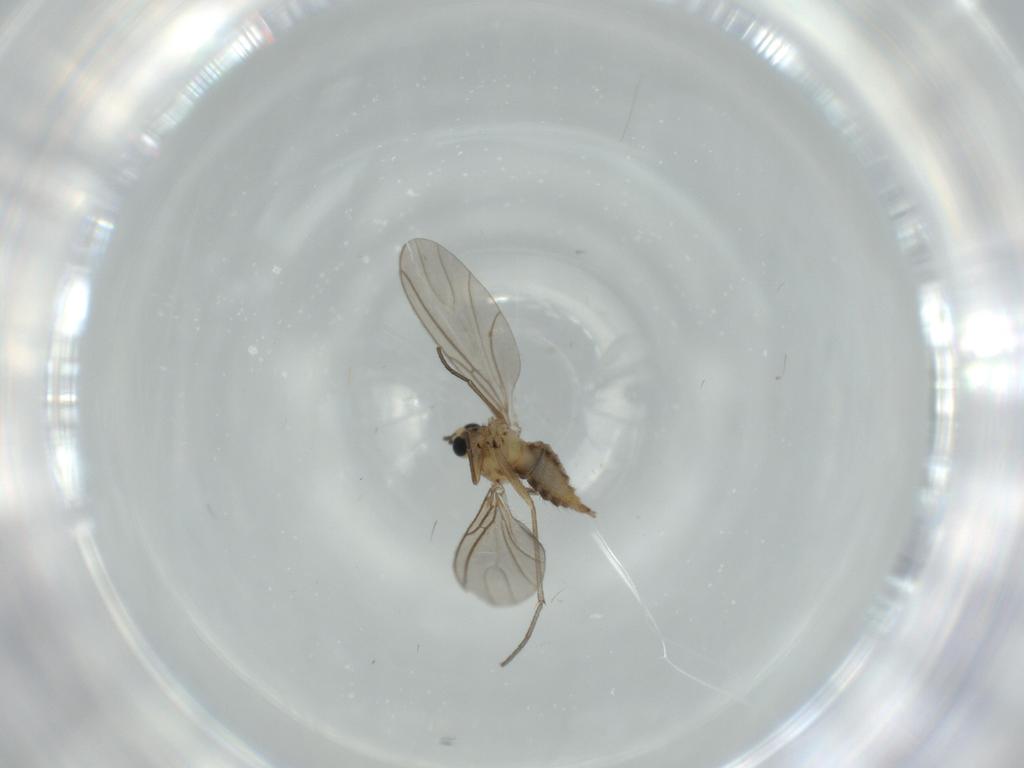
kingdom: Animalia
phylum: Arthropoda
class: Insecta
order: Diptera
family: Sciaridae
